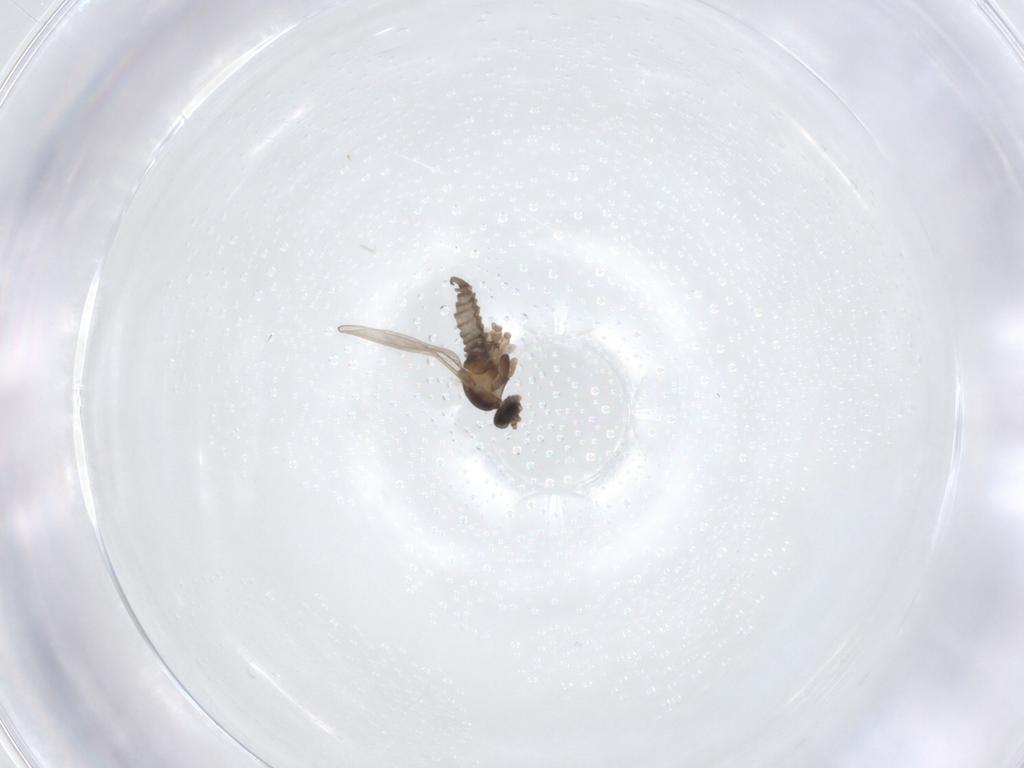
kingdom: Animalia
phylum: Arthropoda
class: Insecta
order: Diptera
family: Cecidomyiidae
